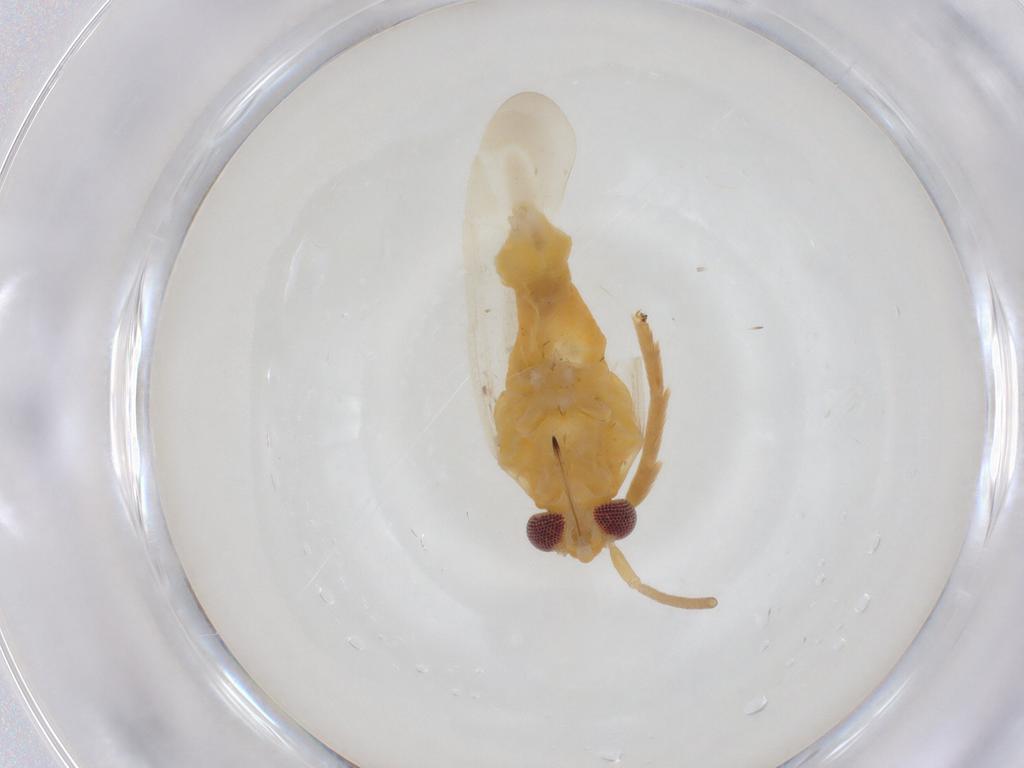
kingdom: Animalia
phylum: Arthropoda
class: Insecta
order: Hemiptera
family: Miridae
